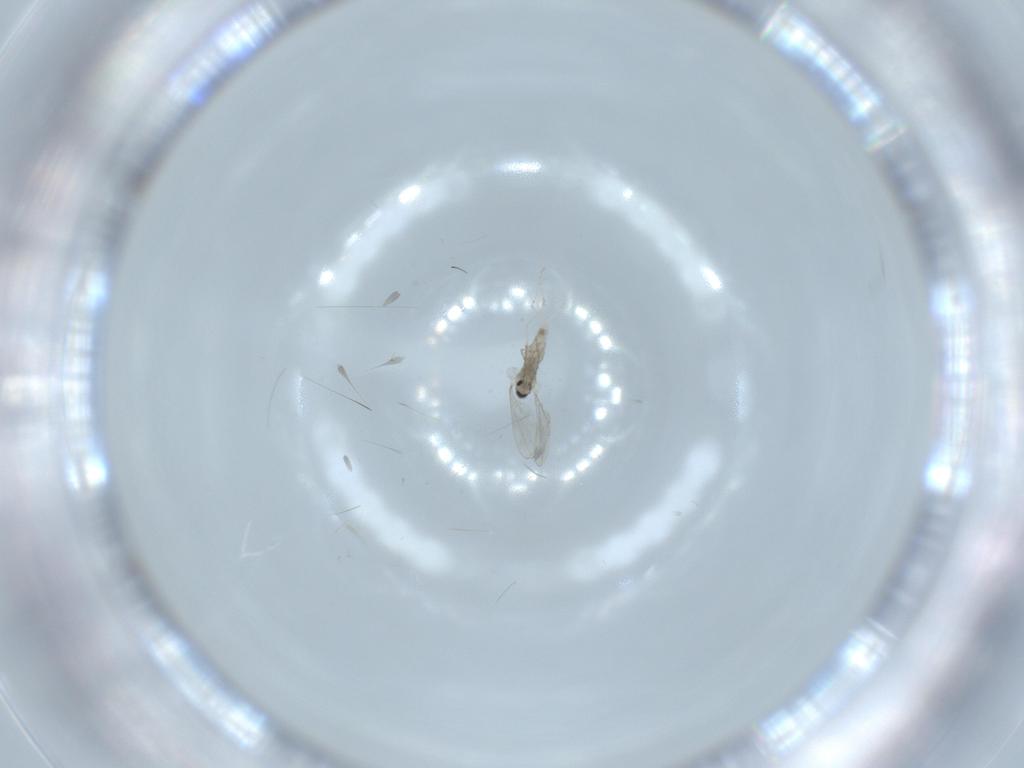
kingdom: Animalia
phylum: Arthropoda
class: Insecta
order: Diptera
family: Cecidomyiidae
